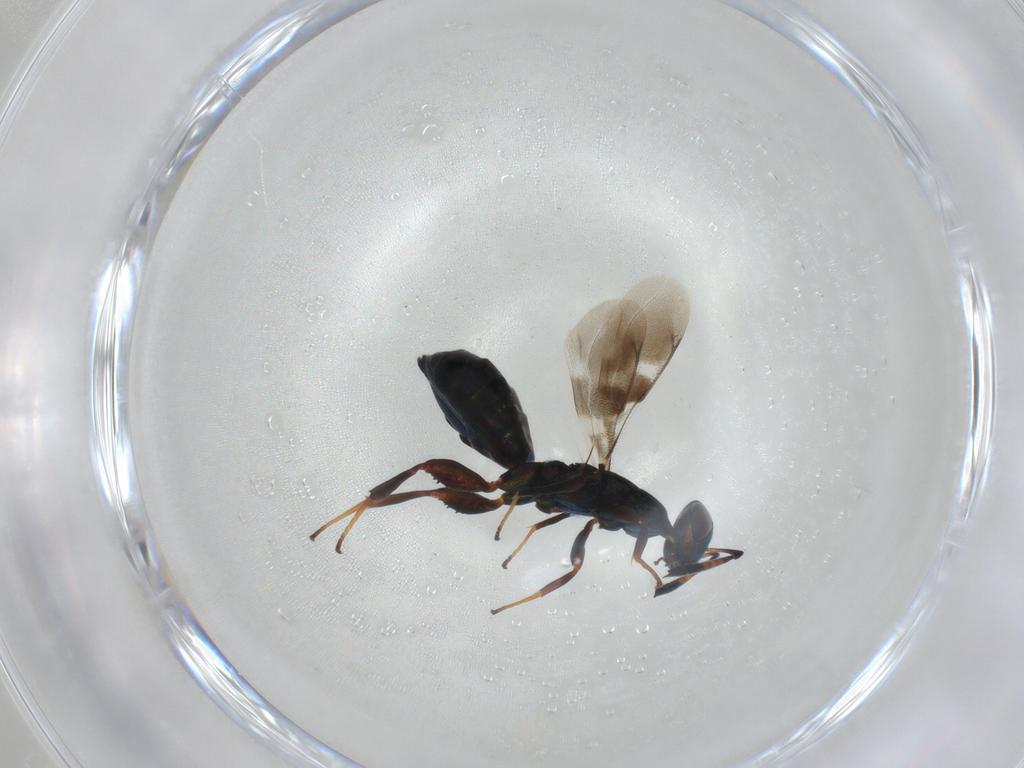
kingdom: Animalia
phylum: Arthropoda
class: Insecta
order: Hymenoptera
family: Cleonyminae
